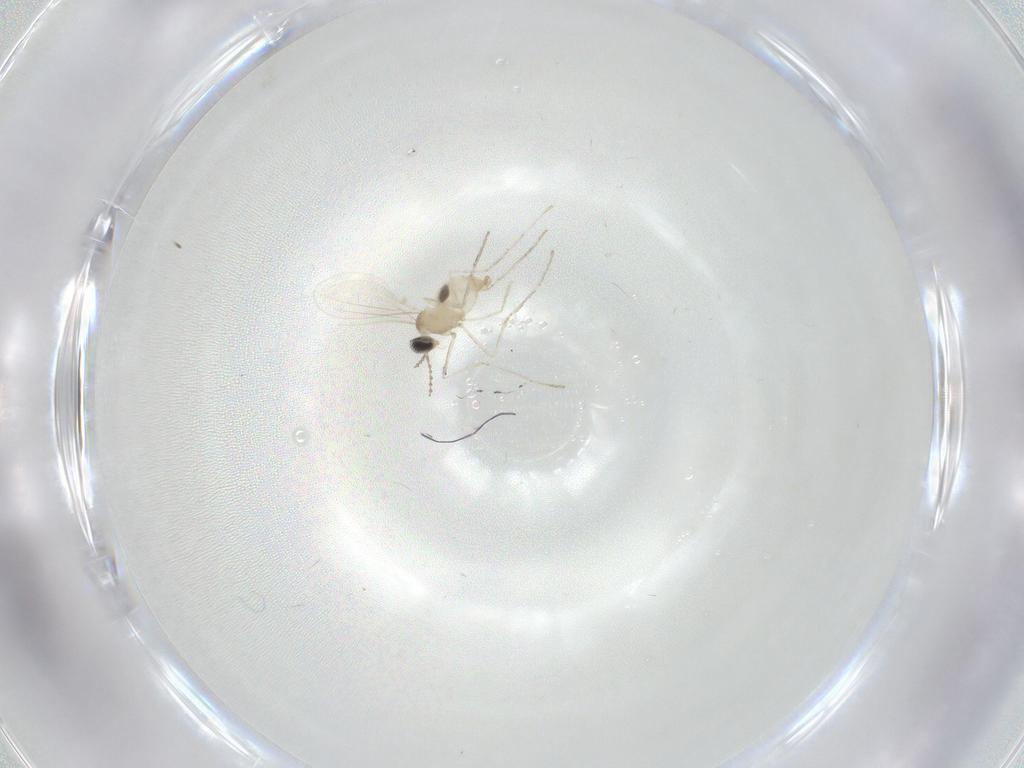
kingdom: Animalia
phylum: Arthropoda
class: Insecta
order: Diptera
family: Cecidomyiidae
